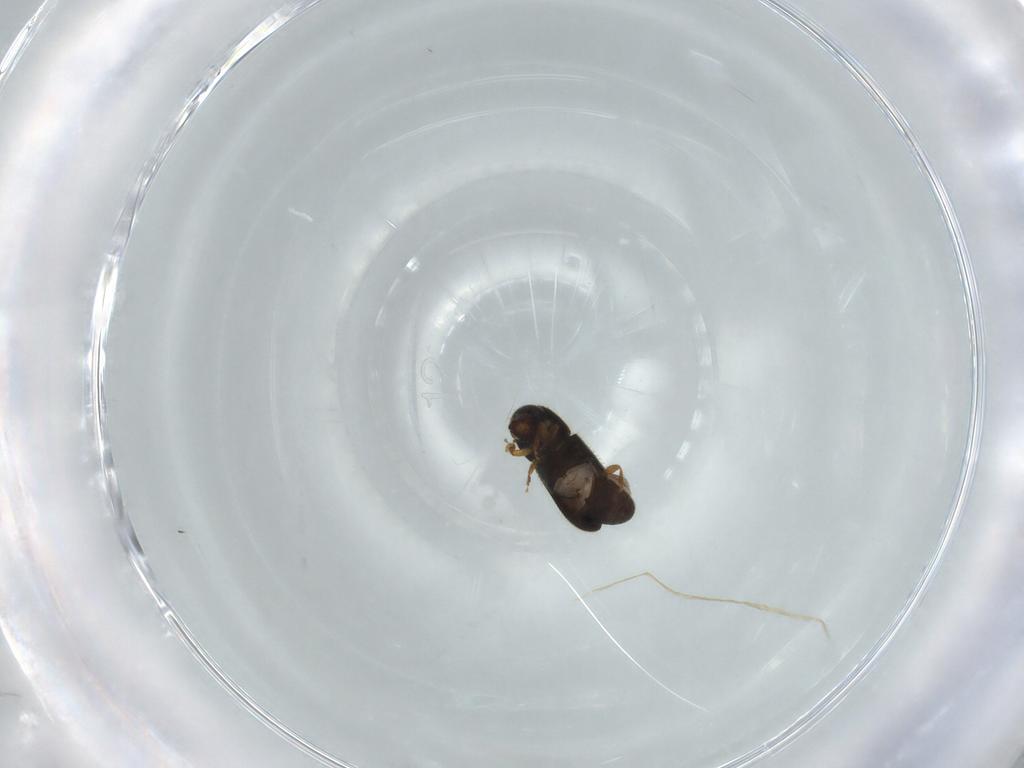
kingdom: Animalia
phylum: Arthropoda
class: Insecta
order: Coleoptera
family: Curculionidae
